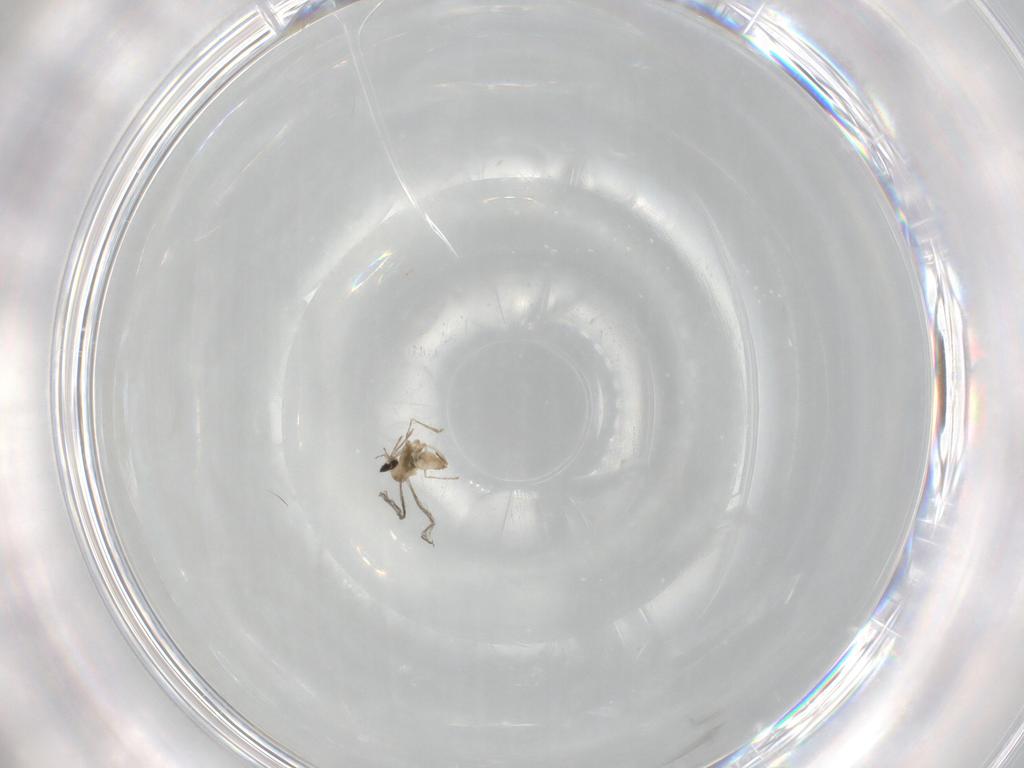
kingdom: Animalia
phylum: Arthropoda
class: Insecta
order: Diptera
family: Cecidomyiidae
